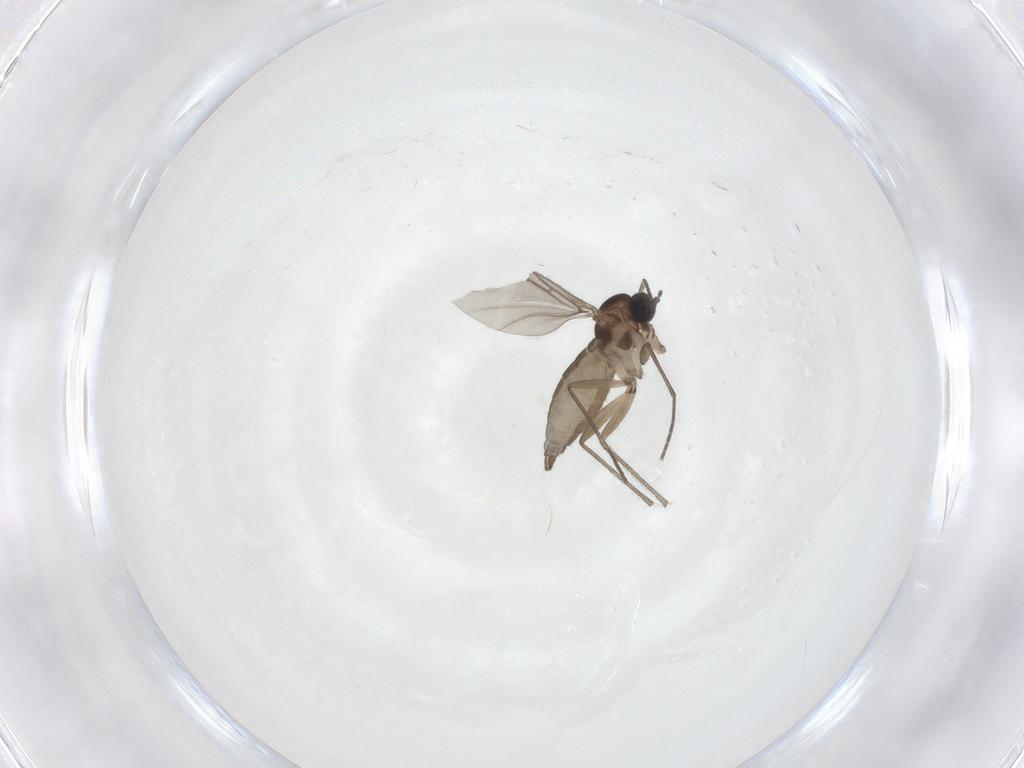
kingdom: Animalia
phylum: Arthropoda
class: Insecta
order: Diptera
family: Sciaridae
